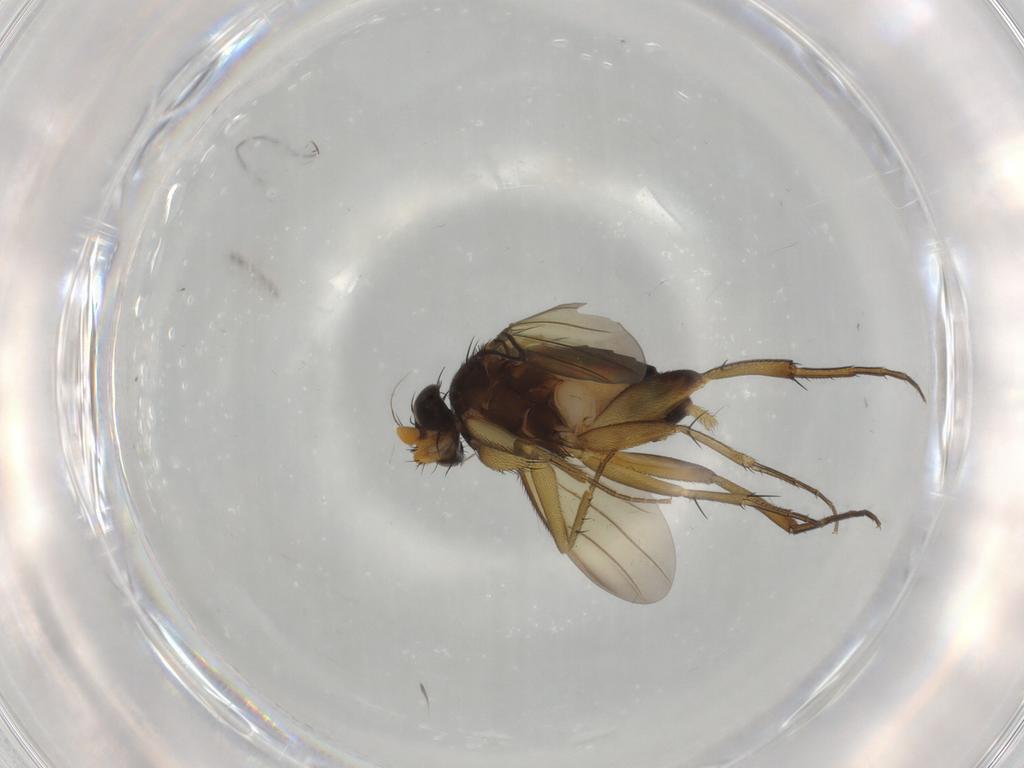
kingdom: Animalia
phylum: Arthropoda
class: Insecta
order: Diptera
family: Phoridae
